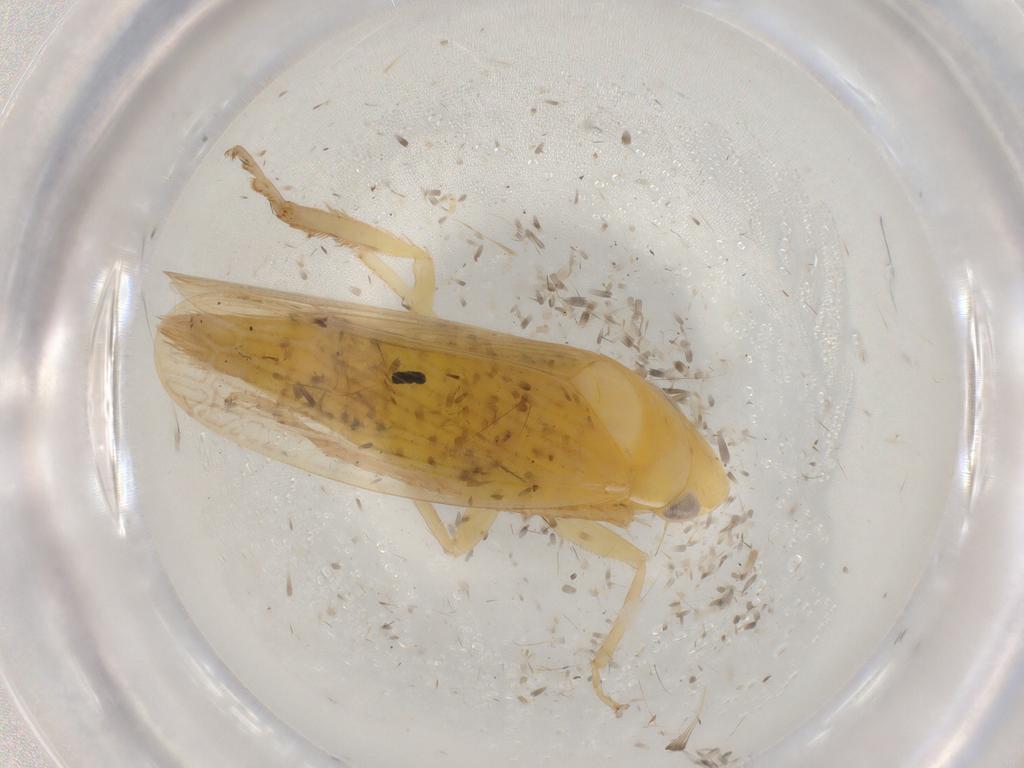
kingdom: Animalia
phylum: Arthropoda
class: Insecta
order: Hemiptera
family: Cicadellidae
